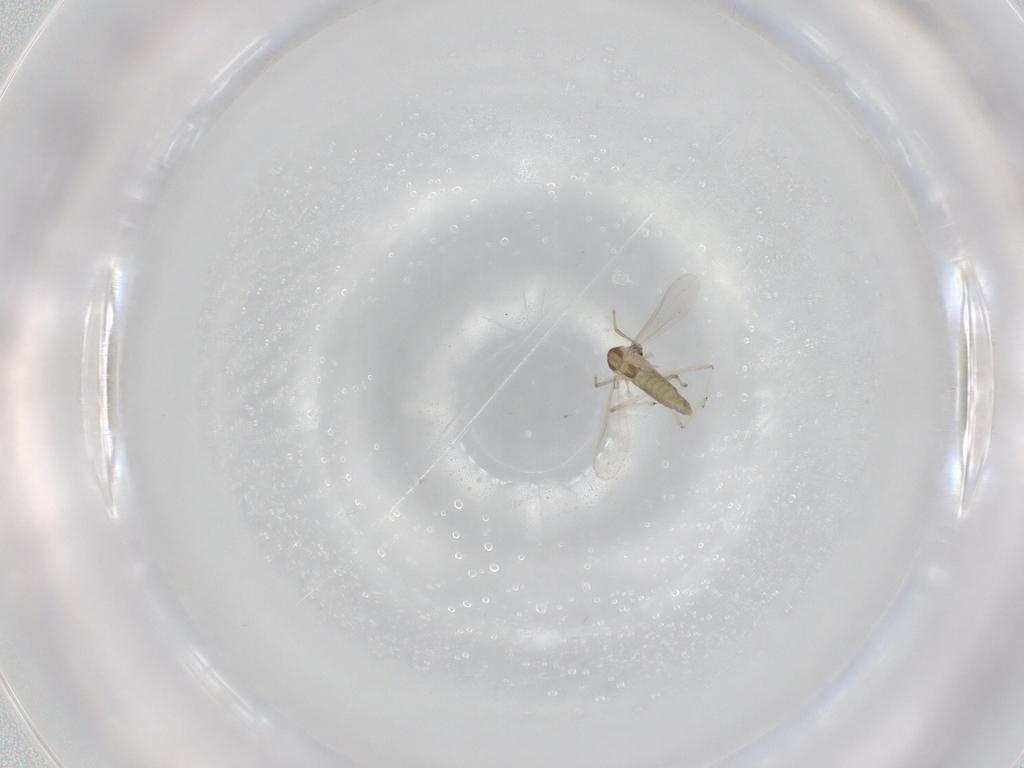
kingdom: Animalia
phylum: Arthropoda
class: Insecta
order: Diptera
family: Chironomidae
